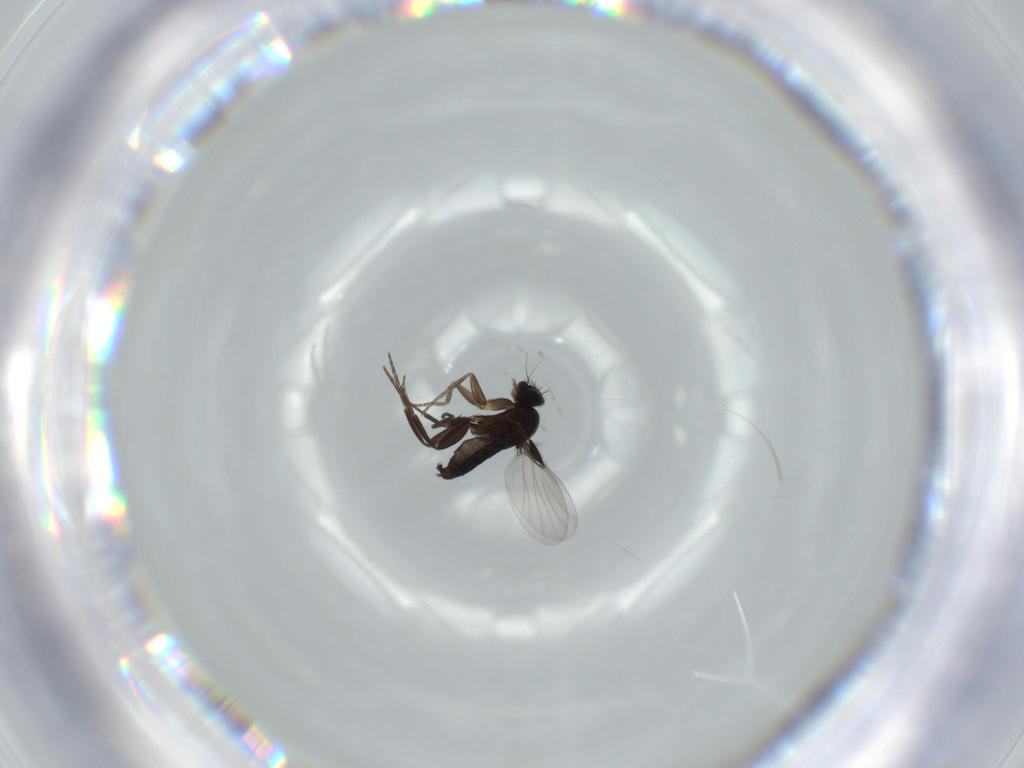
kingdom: Animalia
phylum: Arthropoda
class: Insecta
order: Diptera
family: Phoridae
